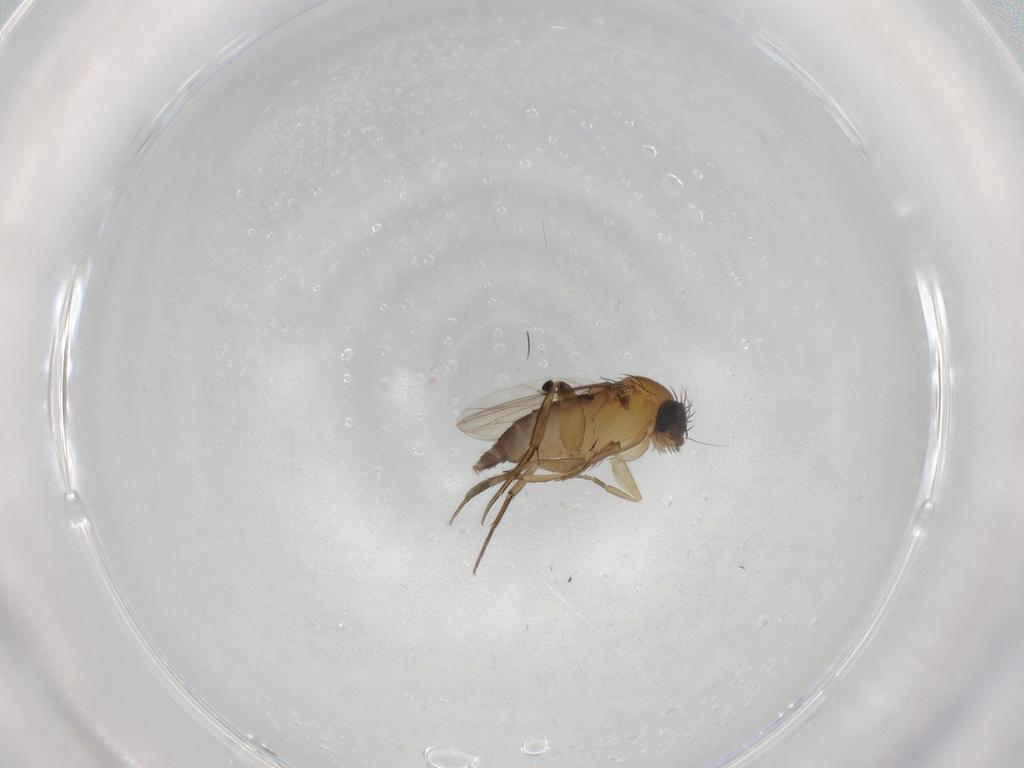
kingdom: Animalia
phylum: Arthropoda
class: Insecta
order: Diptera
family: Phoridae
